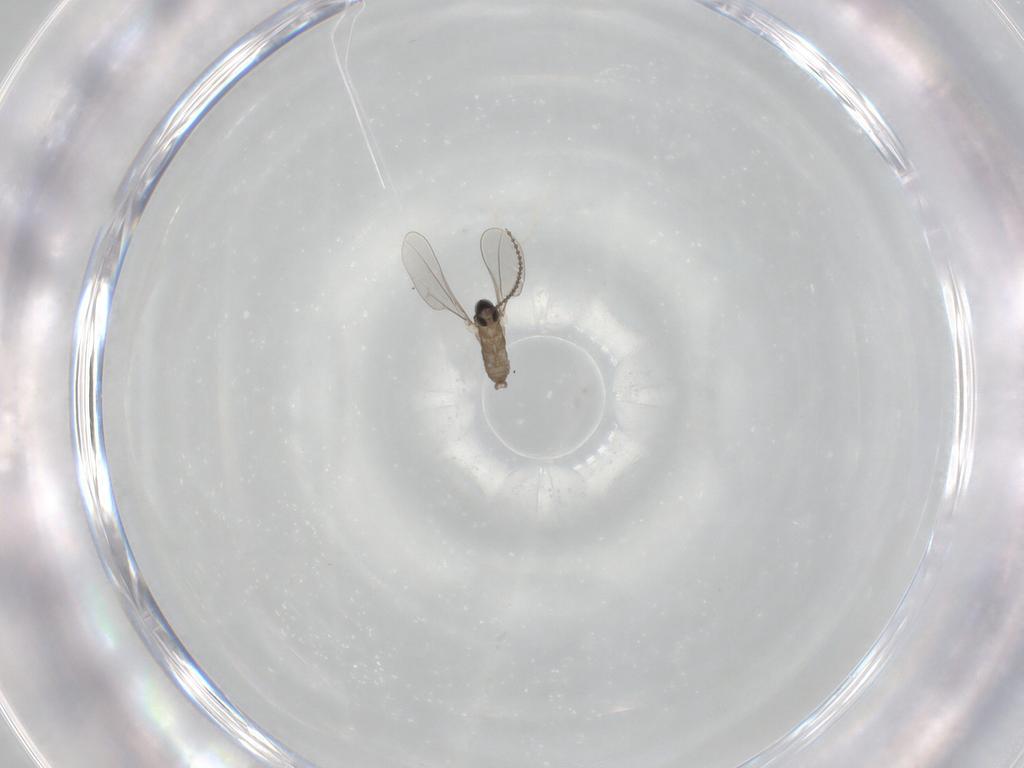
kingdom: Animalia
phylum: Arthropoda
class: Insecta
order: Diptera
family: Cecidomyiidae
